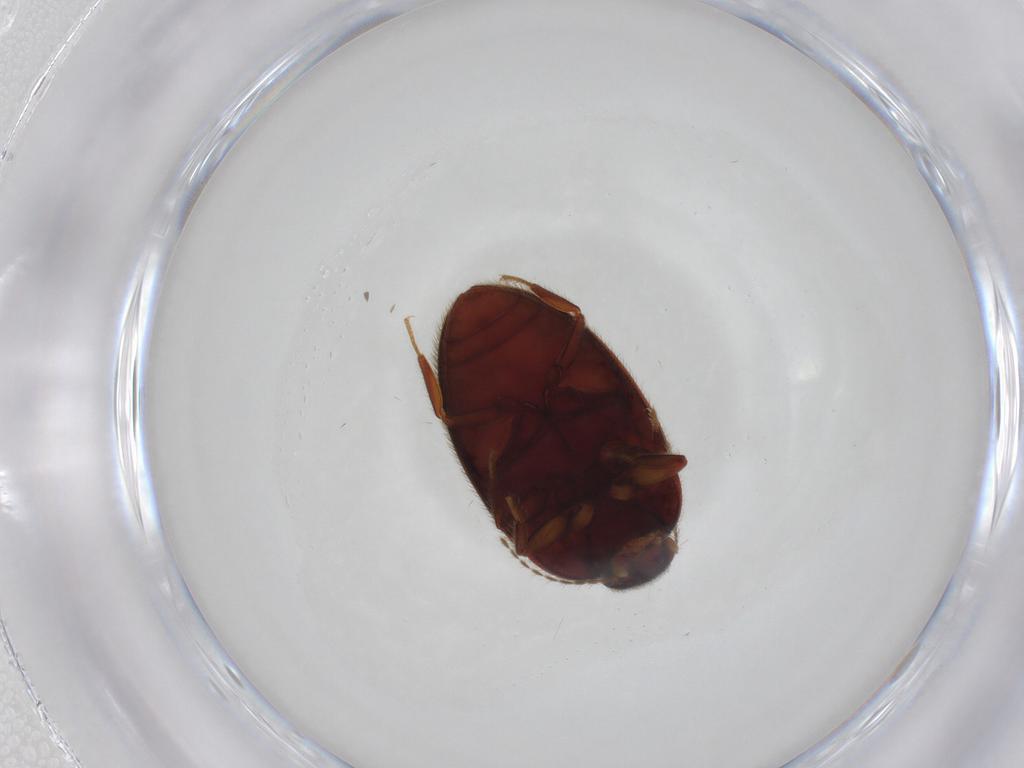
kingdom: Animalia
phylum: Arthropoda
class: Insecta
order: Coleoptera
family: Limnichidae
